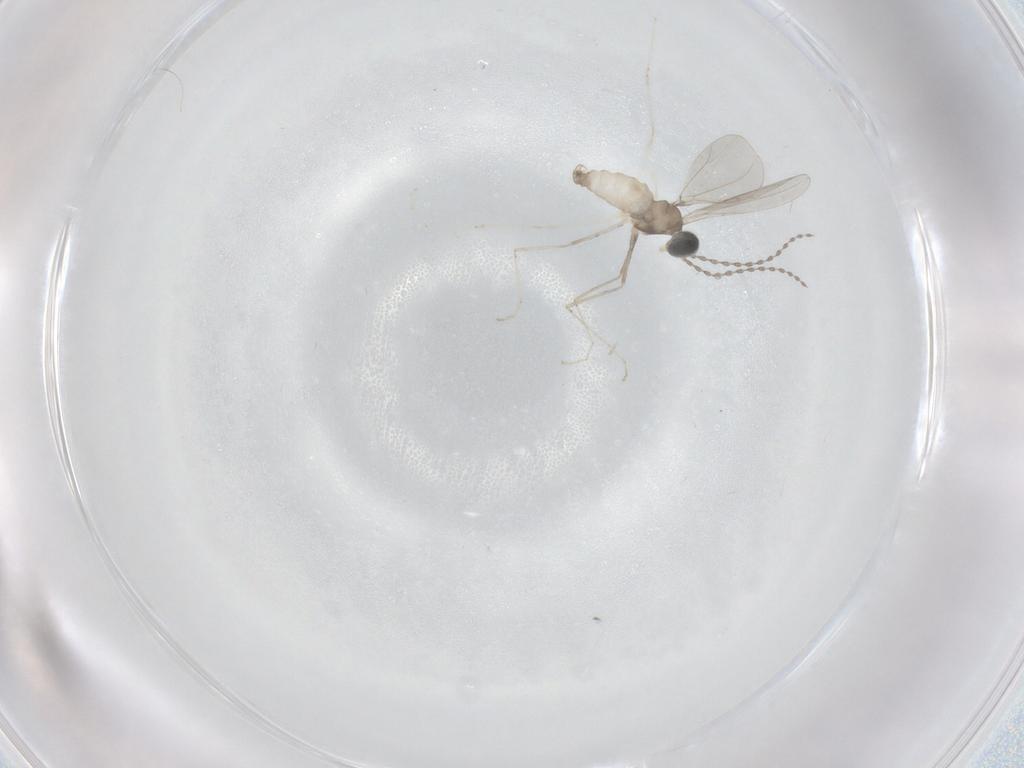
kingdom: Animalia
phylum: Arthropoda
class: Insecta
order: Diptera
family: Cecidomyiidae
